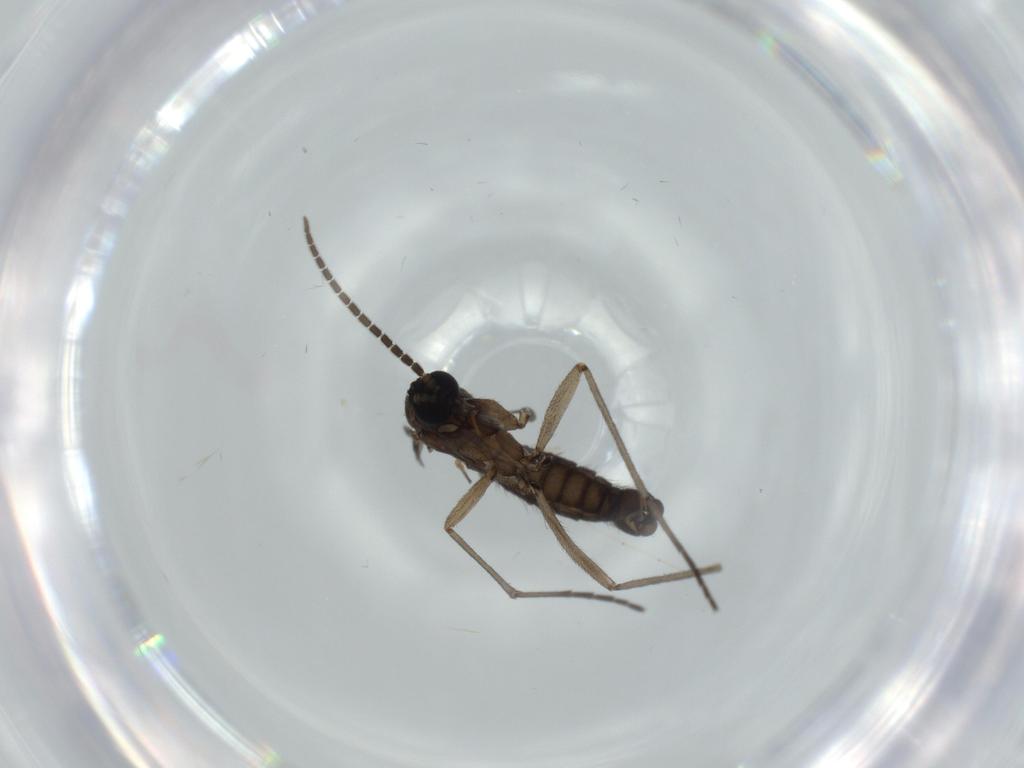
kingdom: Animalia
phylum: Arthropoda
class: Insecta
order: Diptera
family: Sciaridae
